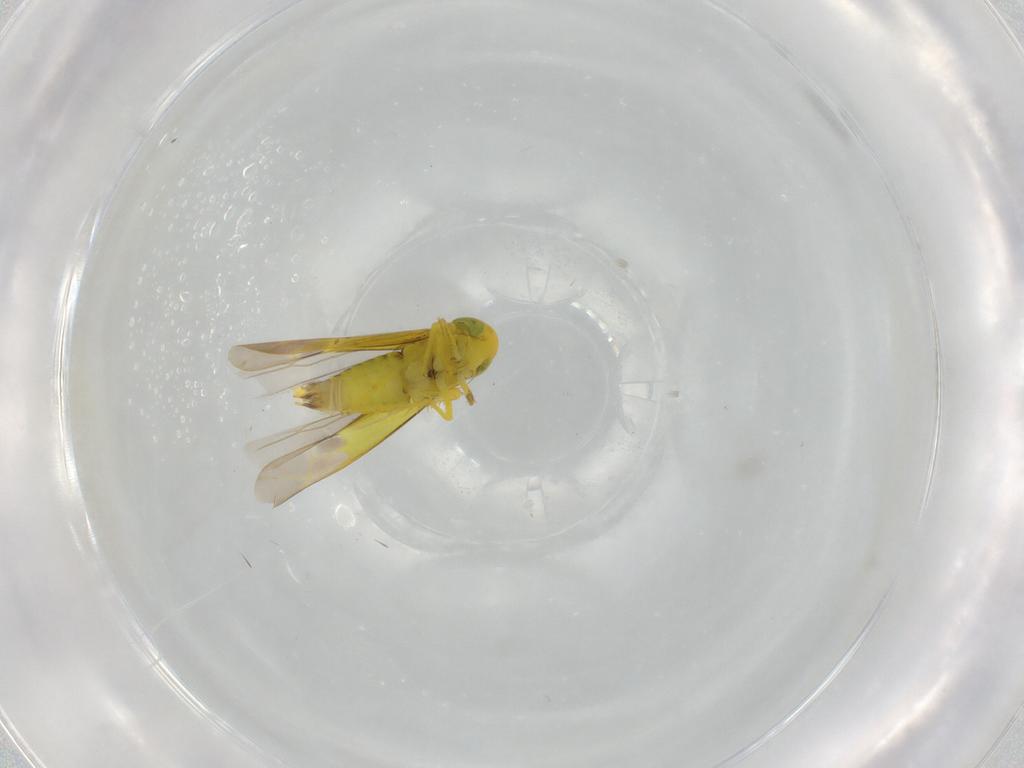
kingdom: Animalia
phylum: Arthropoda
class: Insecta
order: Hemiptera
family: Cicadellidae
